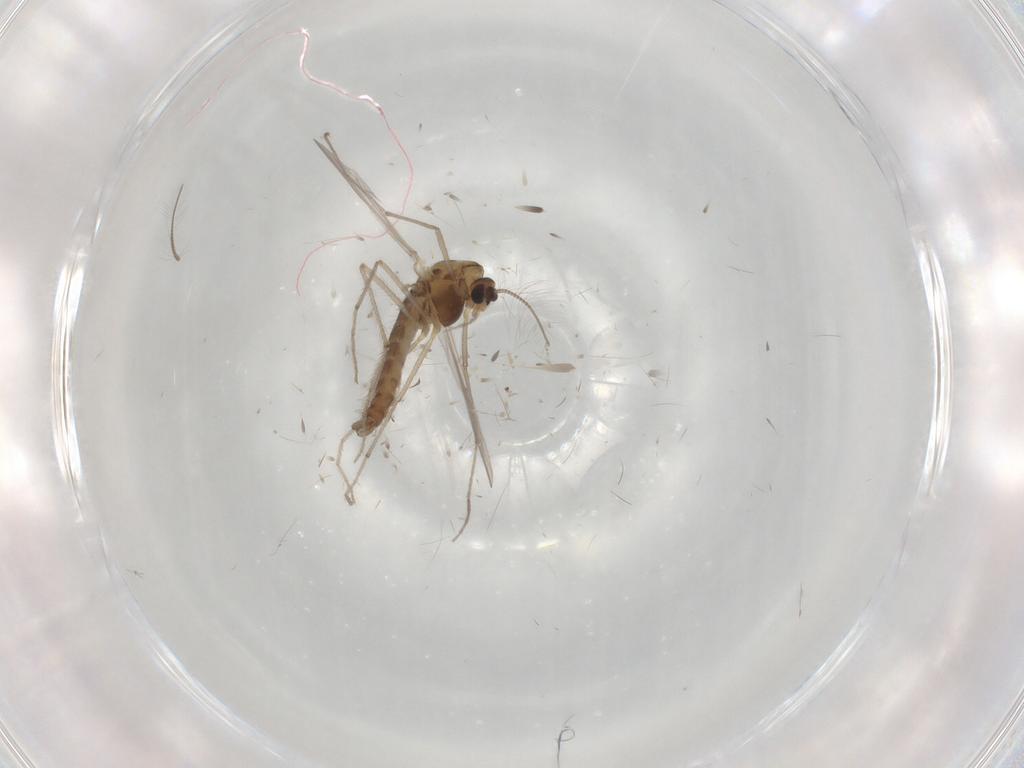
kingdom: Animalia
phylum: Arthropoda
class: Insecta
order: Diptera
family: Chironomidae
